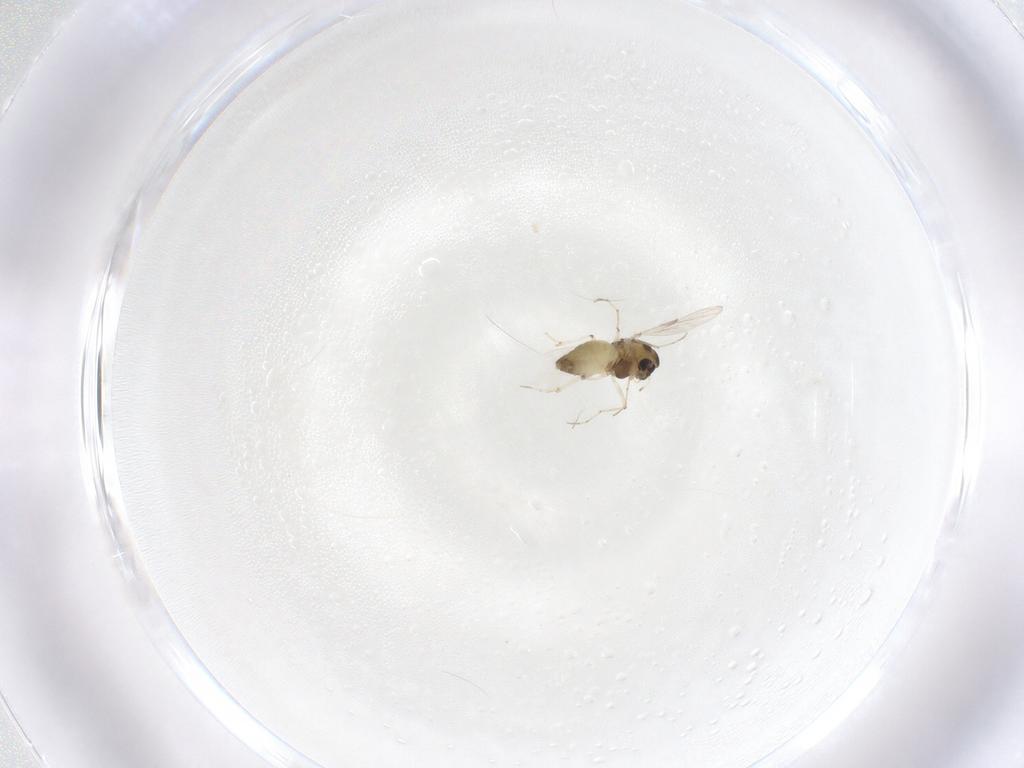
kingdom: Animalia
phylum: Arthropoda
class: Insecta
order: Diptera
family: Chironomidae
